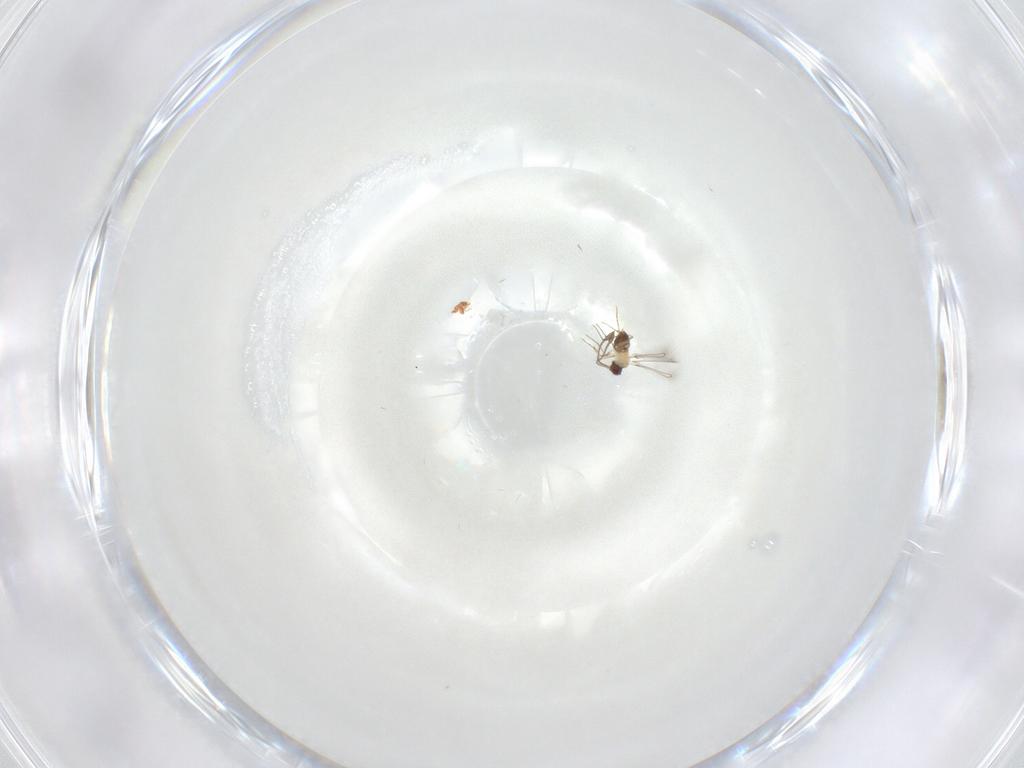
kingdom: Animalia
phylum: Arthropoda
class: Insecta
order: Hymenoptera
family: Mymaridae
